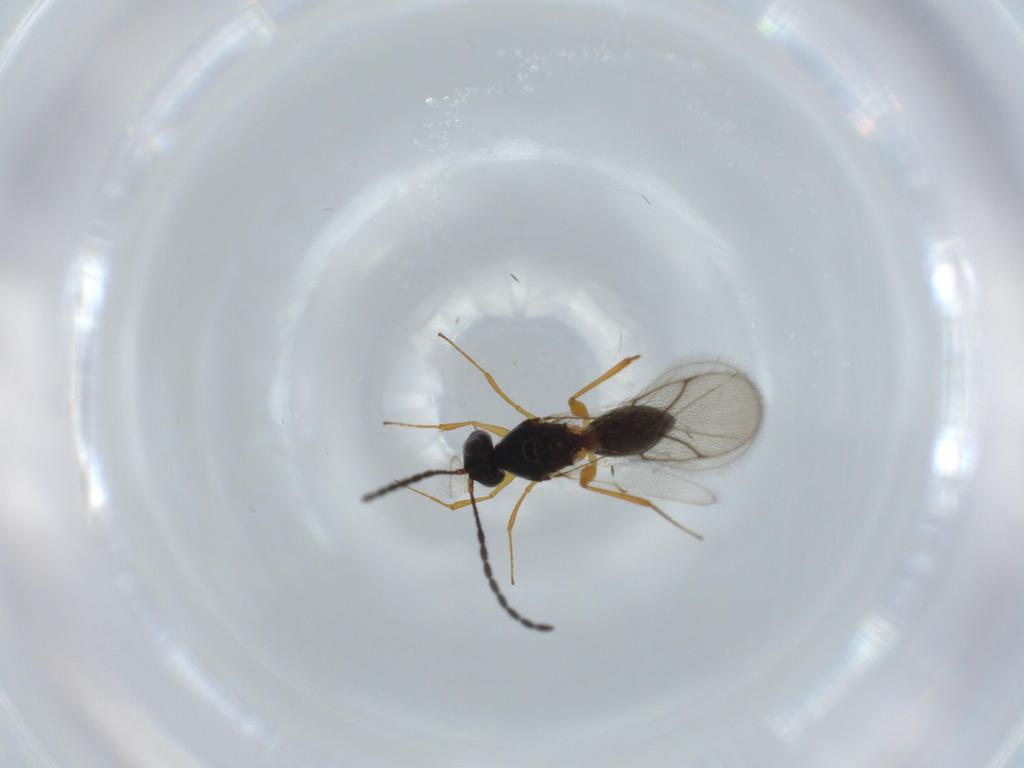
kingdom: Animalia
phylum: Arthropoda
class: Insecta
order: Hymenoptera
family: Figitidae
